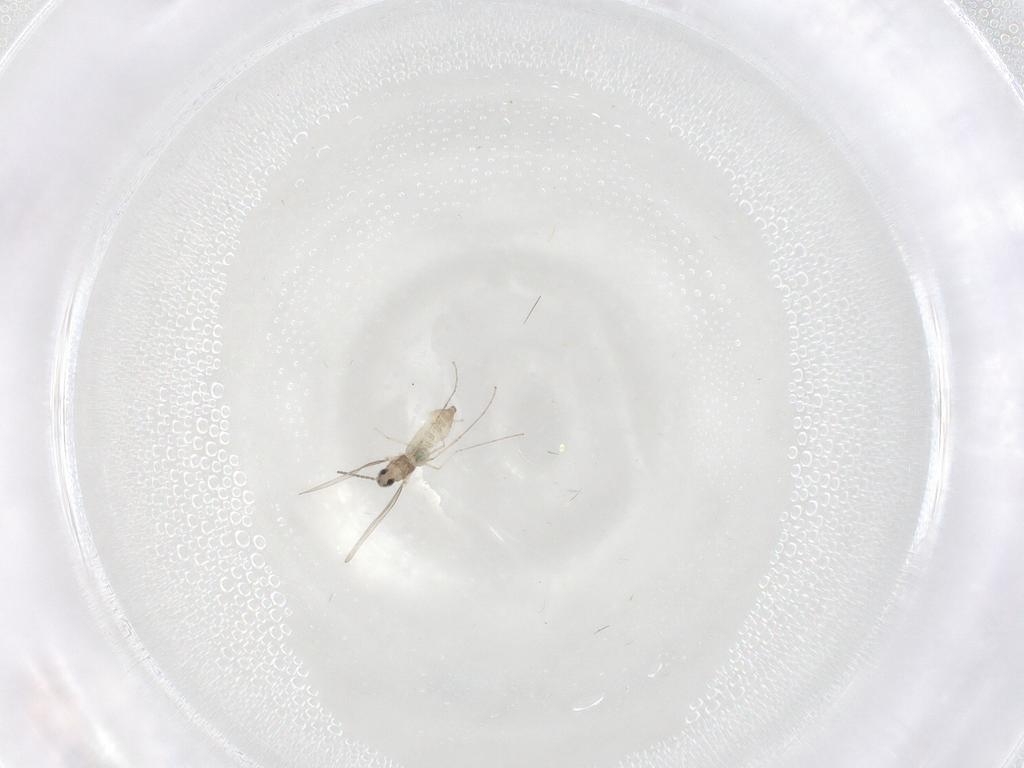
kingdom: Animalia
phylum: Arthropoda
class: Insecta
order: Diptera
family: Cecidomyiidae
